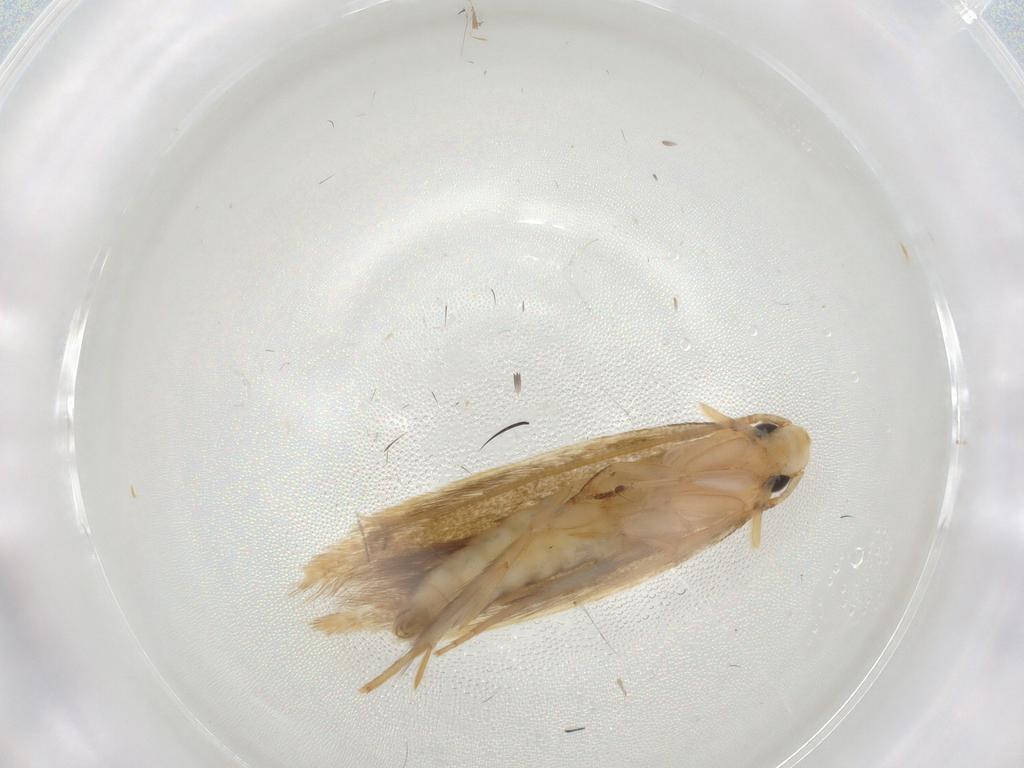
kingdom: Animalia
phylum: Arthropoda
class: Insecta
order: Lepidoptera
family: Tineidae
